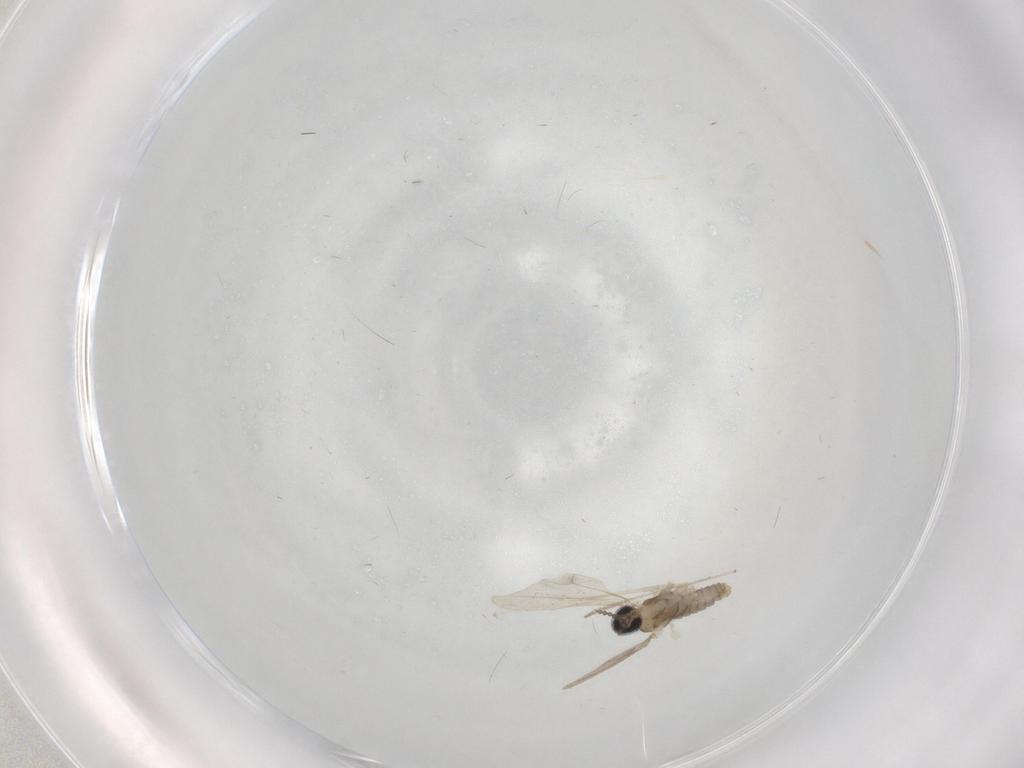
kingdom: Animalia
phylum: Arthropoda
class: Insecta
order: Diptera
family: Cecidomyiidae
